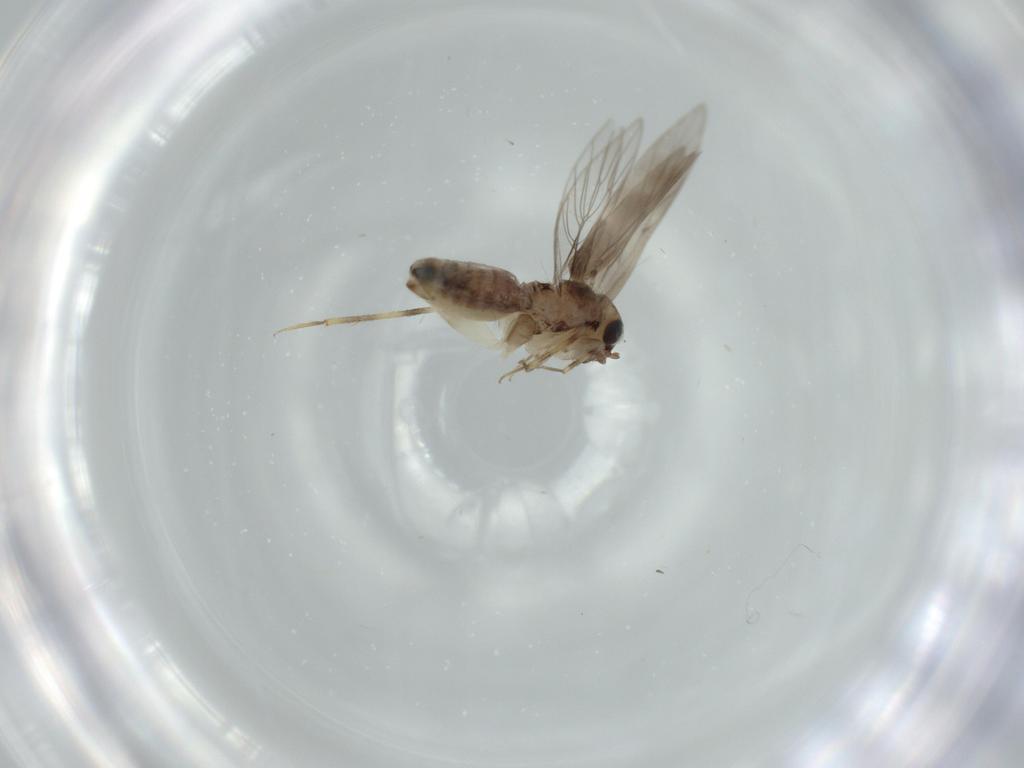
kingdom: Animalia
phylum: Arthropoda
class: Insecta
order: Psocodea
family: Lepidopsocidae
